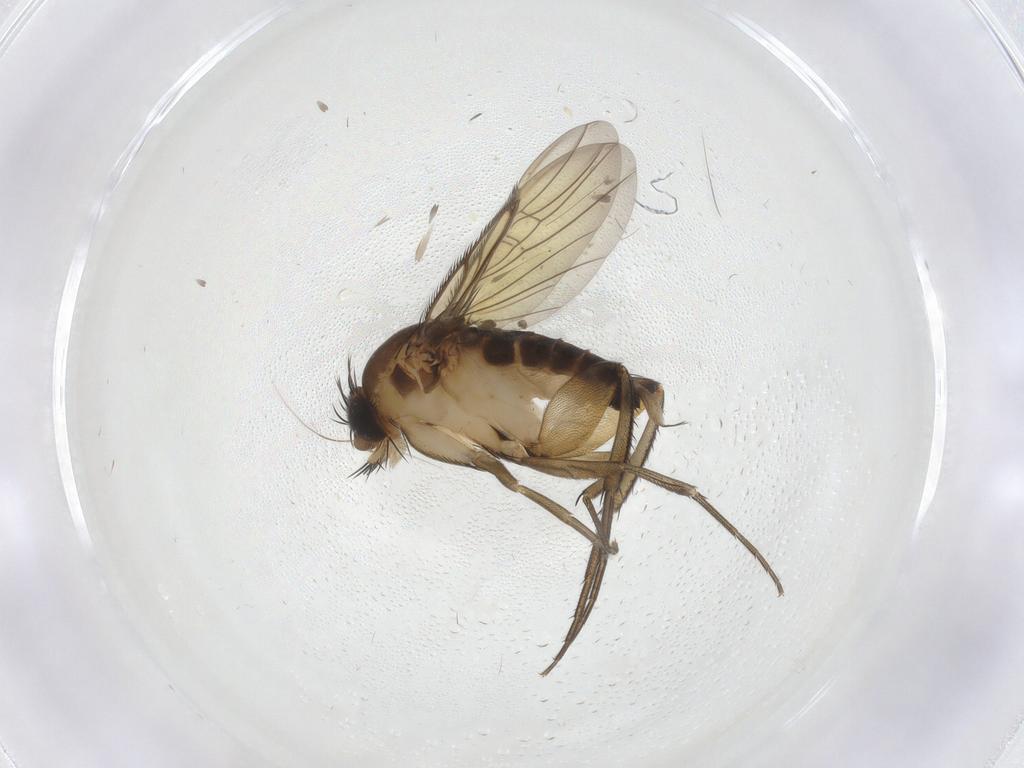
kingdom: Animalia
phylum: Arthropoda
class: Insecta
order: Diptera
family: Phoridae
